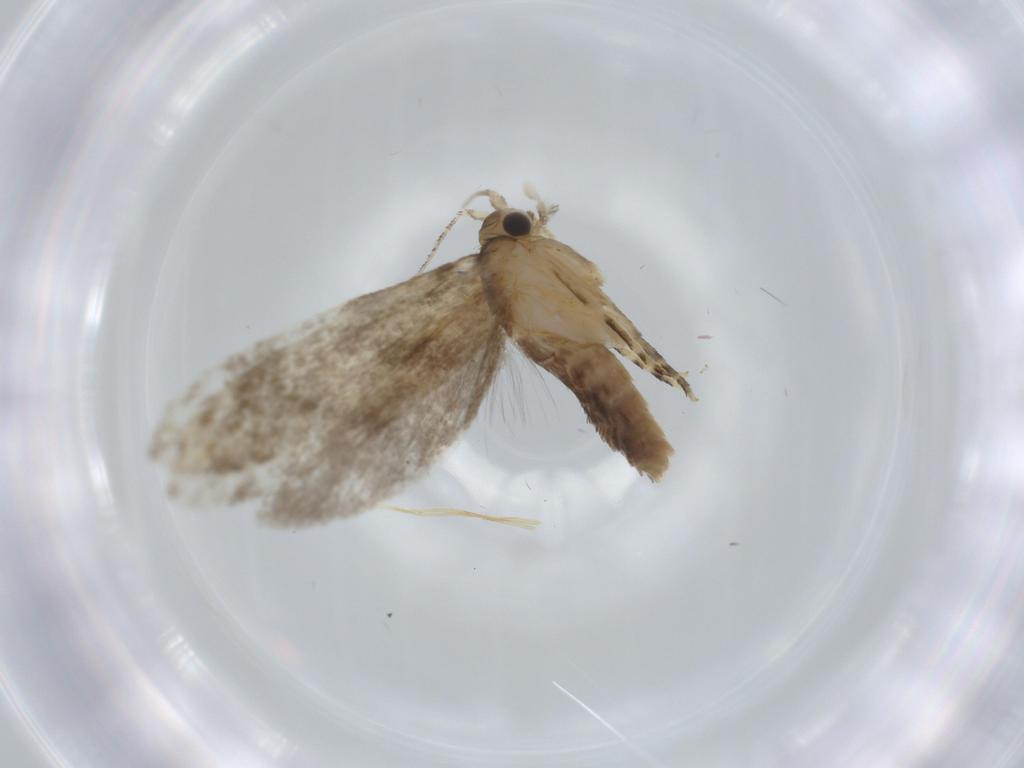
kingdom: Animalia
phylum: Arthropoda
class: Insecta
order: Lepidoptera
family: Tineidae
